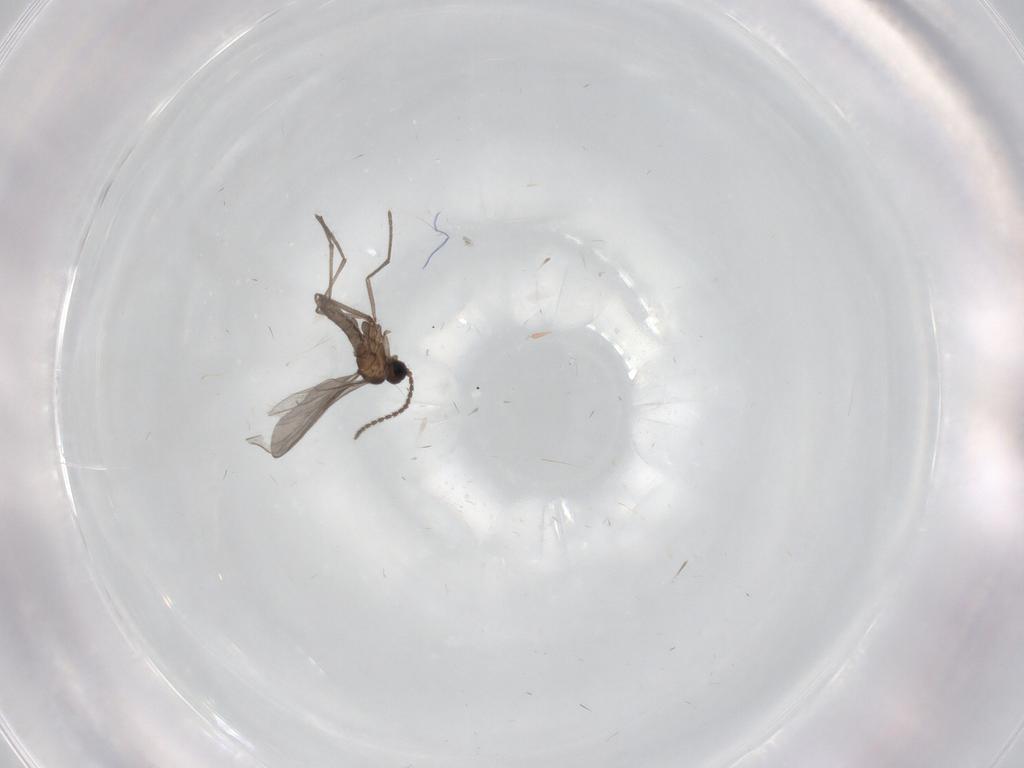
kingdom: Animalia
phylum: Arthropoda
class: Insecta
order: Diptera
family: Sciaridae
